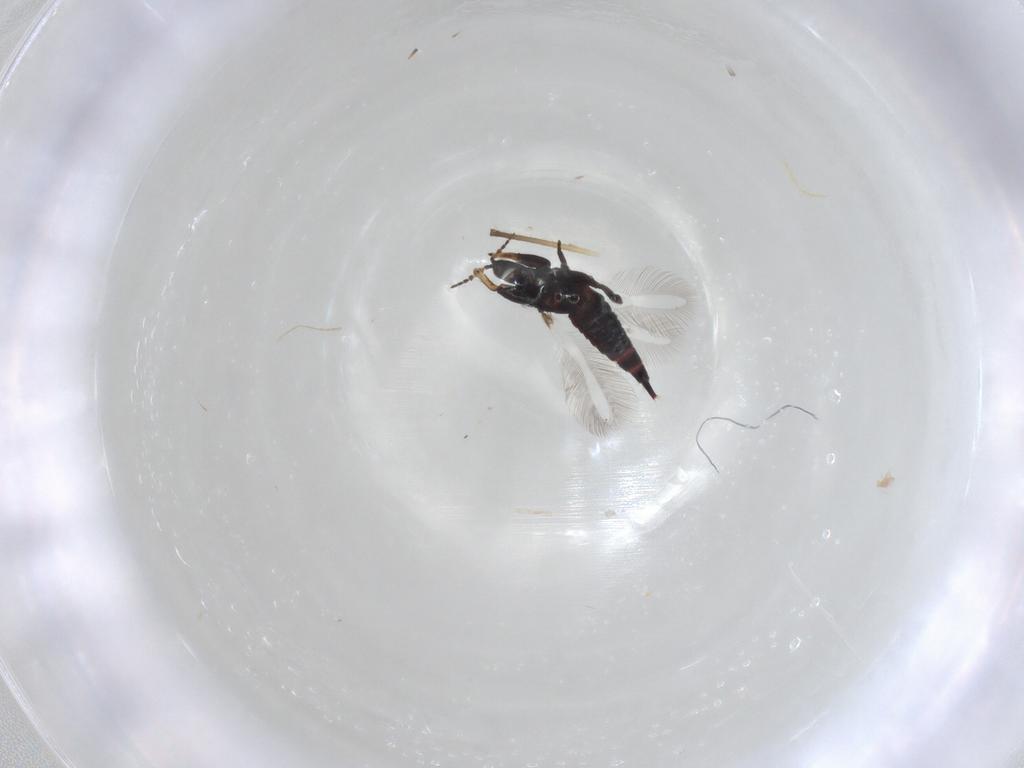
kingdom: Animalia
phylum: Arthropoda
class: Insecta
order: Thysanoptera
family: Phlaeothripidae
